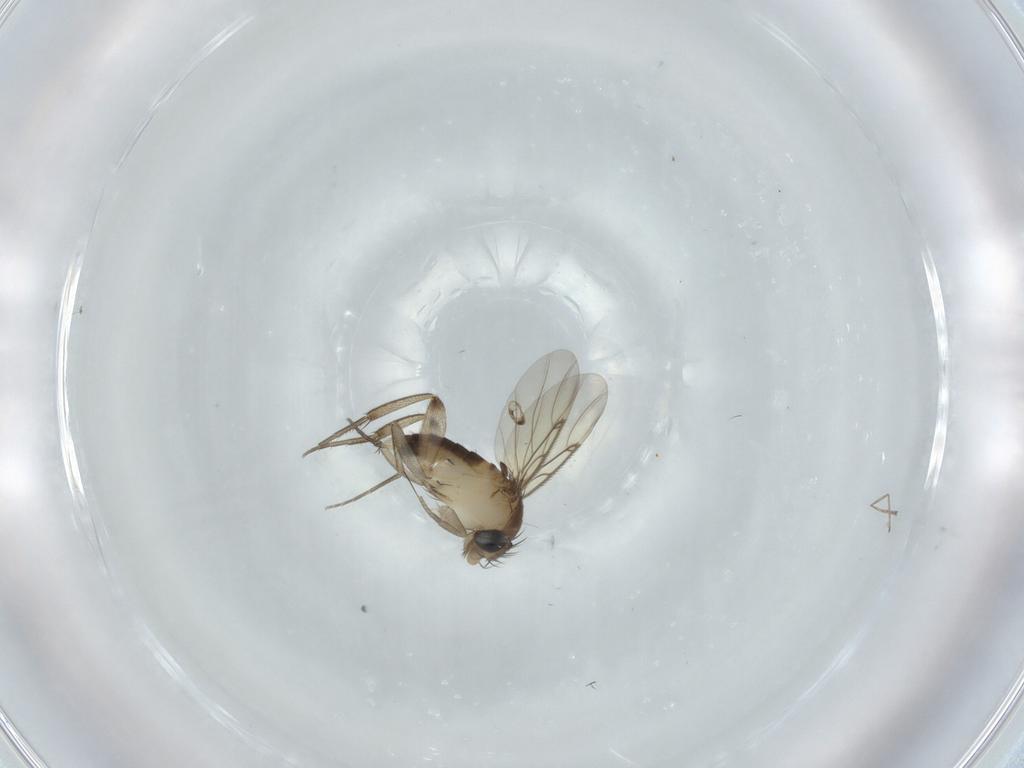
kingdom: Animalia
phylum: Arthropoda
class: Insecta
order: Diptera
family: Phoridae
